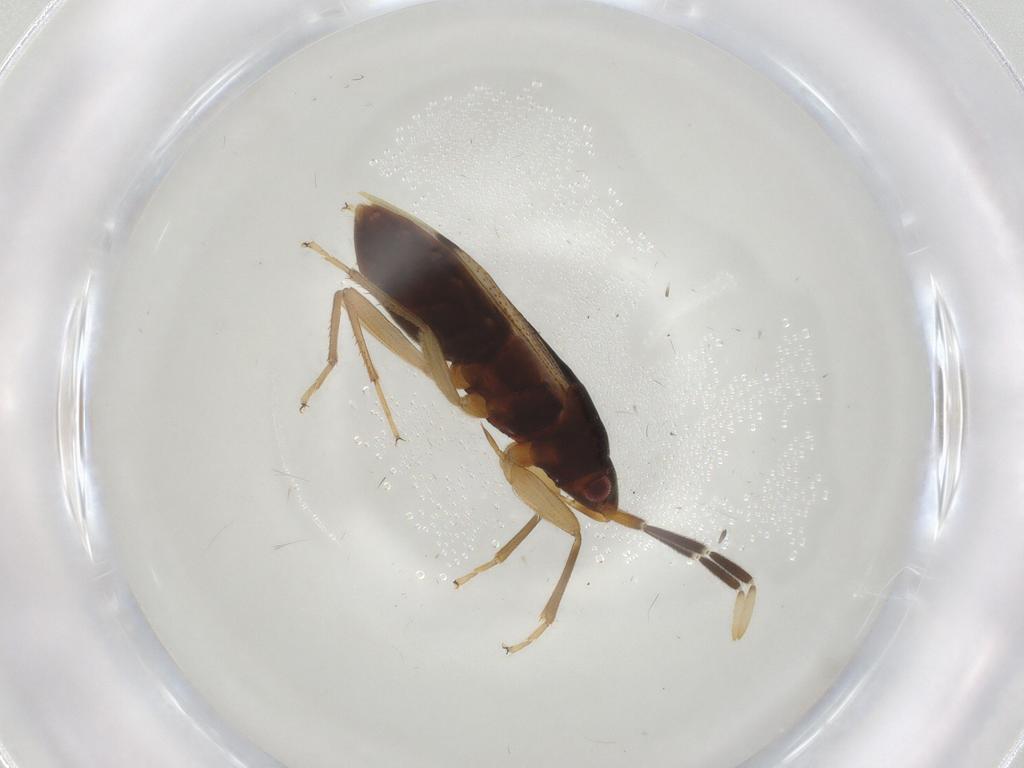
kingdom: Animalia
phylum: Arthropoda
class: Insecta
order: Hemiptera
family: Rhyparochromidae
